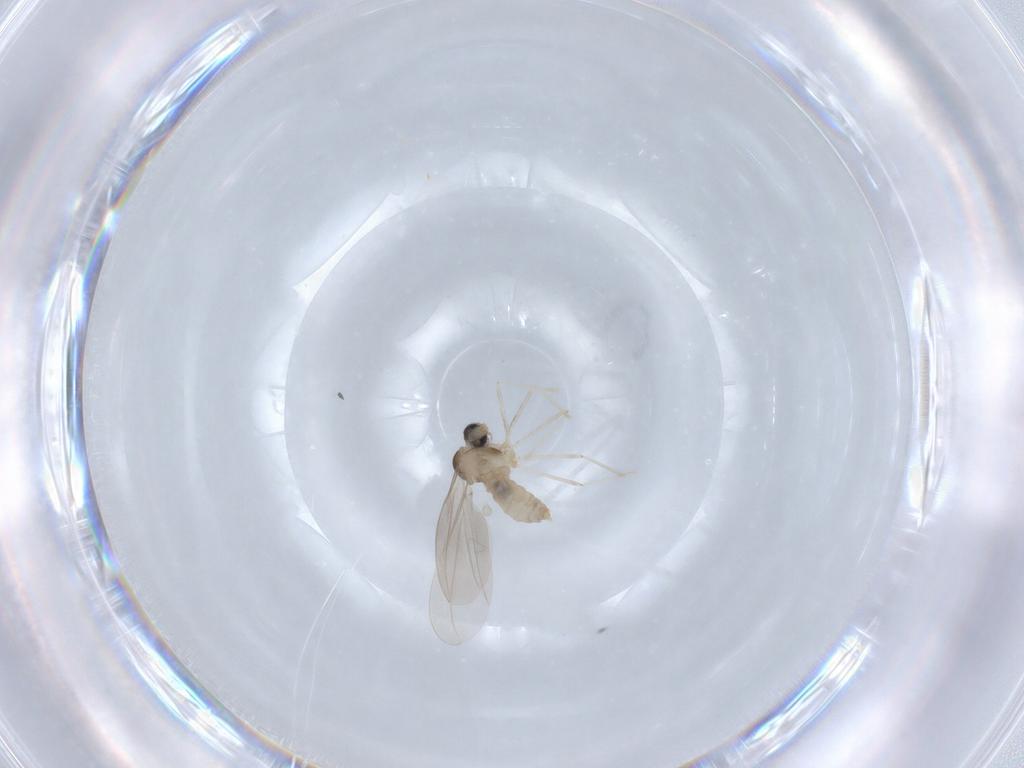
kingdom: Animalia
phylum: Arthropoda
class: Insecta
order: Diptera
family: Cecidomyiidae
